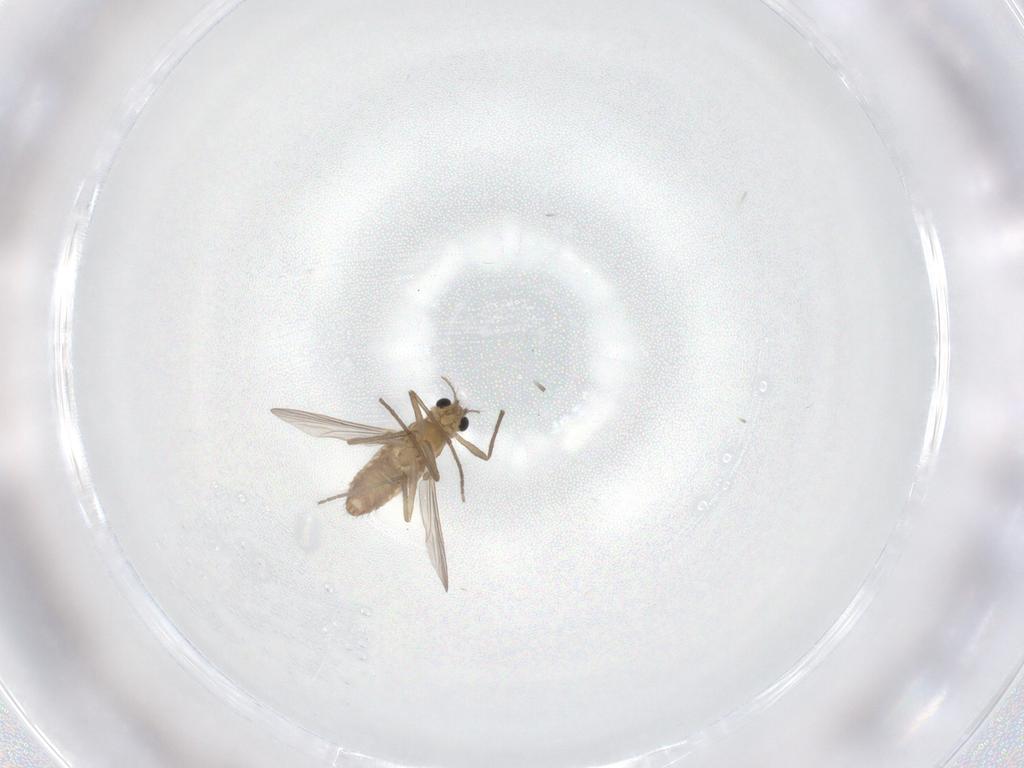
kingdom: Animalia
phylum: Arthropoda
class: Insecta
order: Diptera
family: Chironomidae
